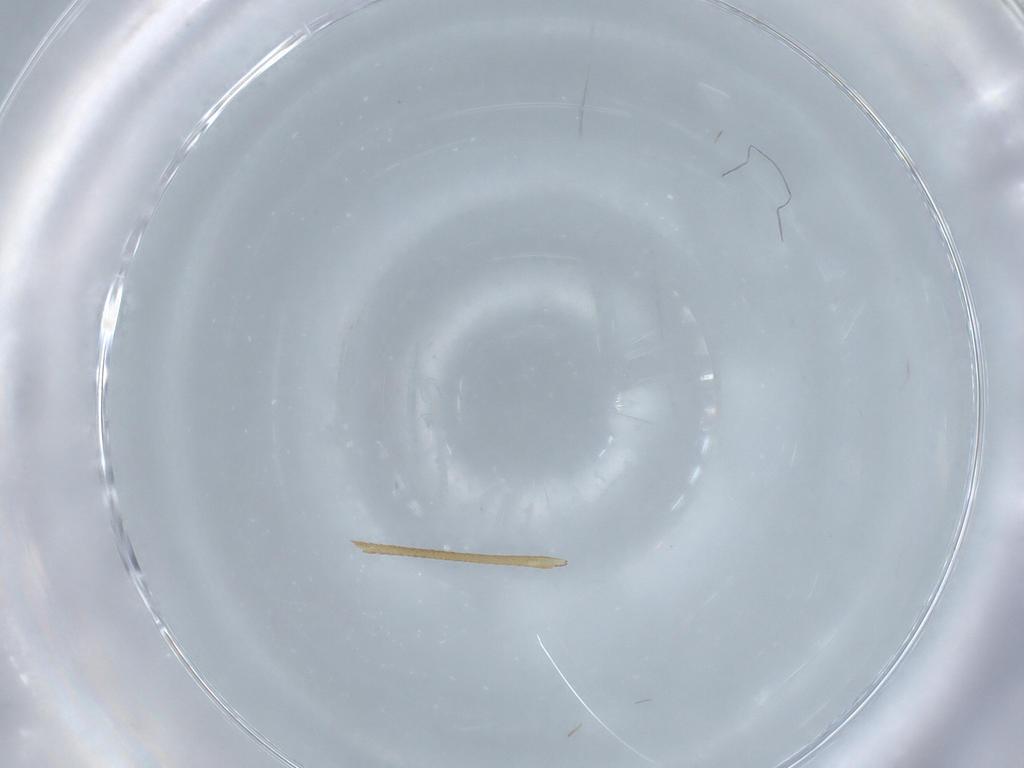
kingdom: Animalia
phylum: Arthropoda
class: Insecta
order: Diptera
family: Limoniidae
